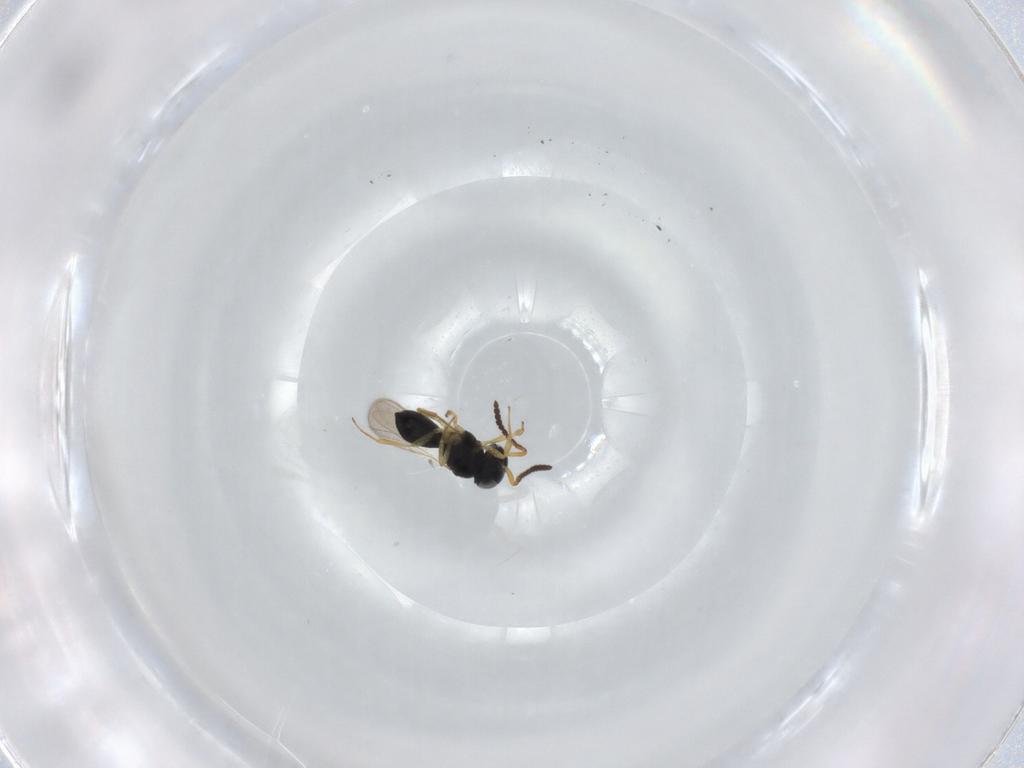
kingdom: Animalia
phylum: Arthropoda
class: Insecta
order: Hymenoptera
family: Scelionidae
